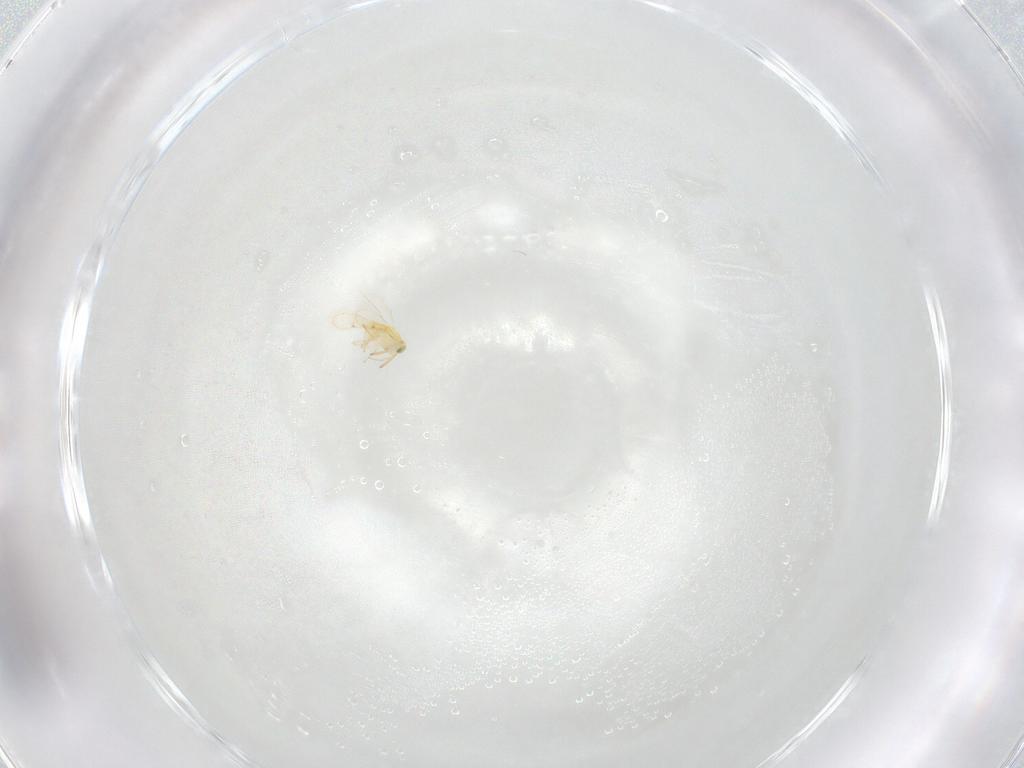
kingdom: Animalia
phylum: Arthropoda
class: Insecta
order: Hymenoptera
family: Aphelinidae
